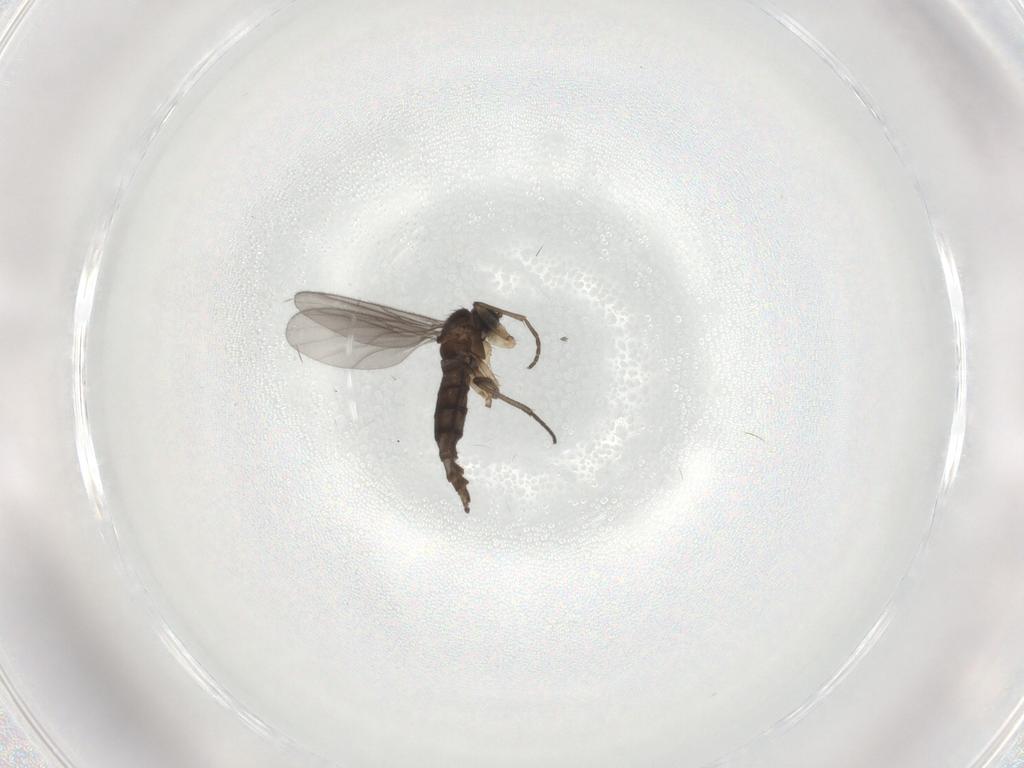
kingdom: Animalia
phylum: Arthropoda
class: Insecta
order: Diptera
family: Sciaridae
